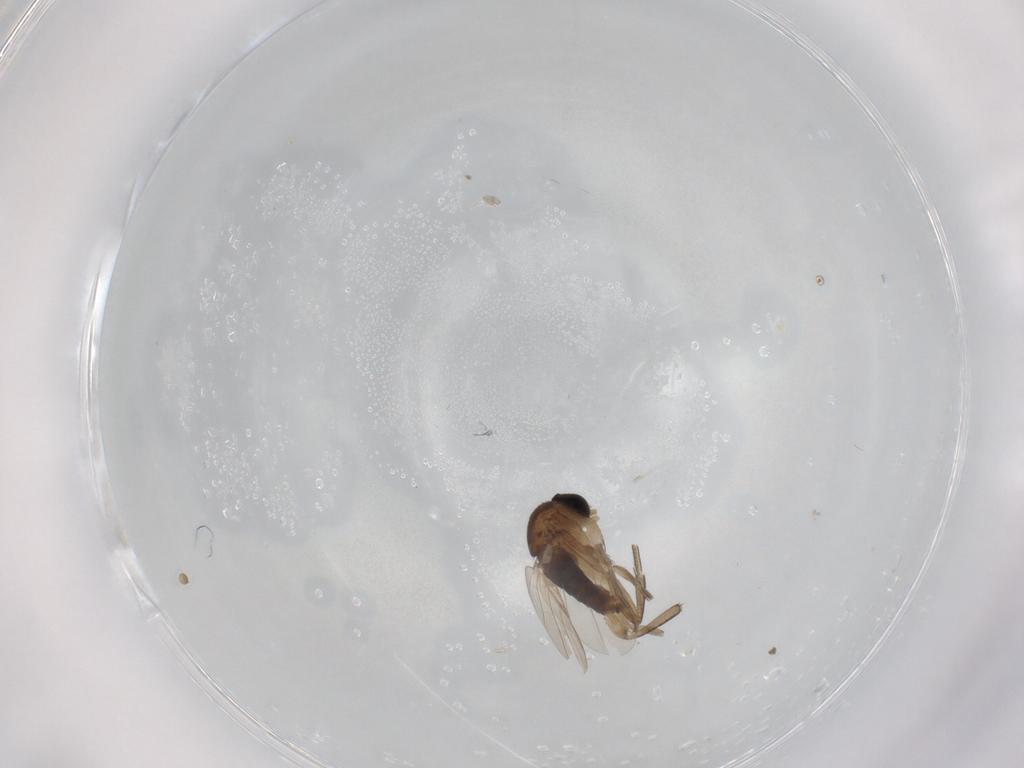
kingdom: Animalia
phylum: Arthropoda
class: Insecta
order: Diptera
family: Phoridae
